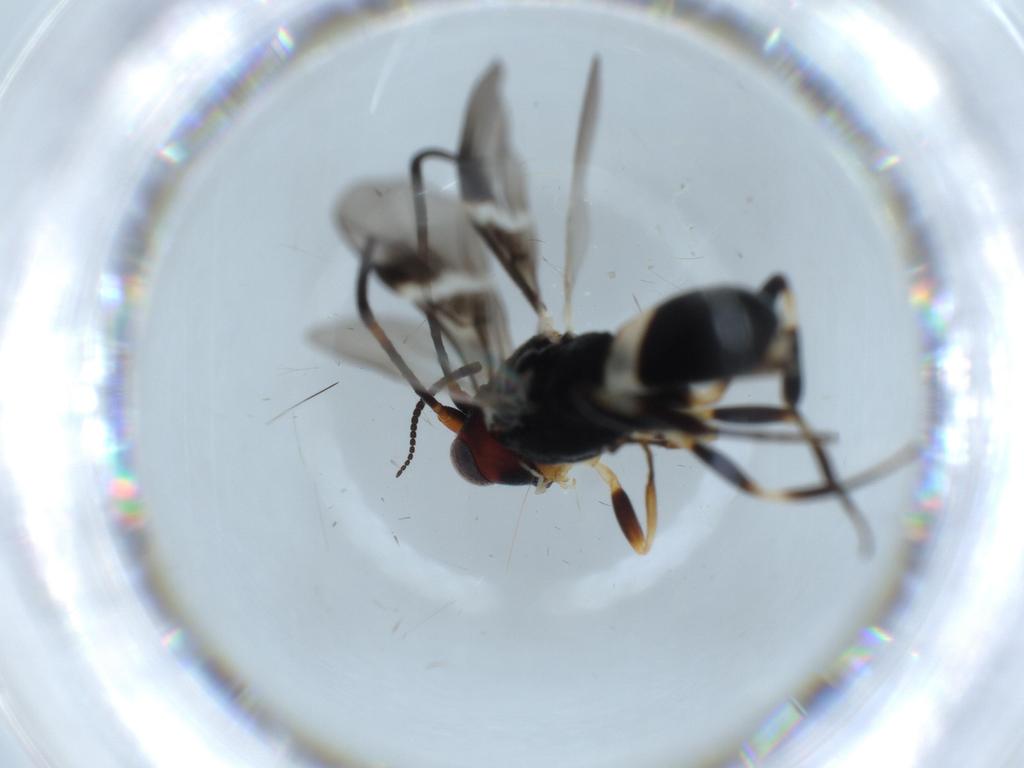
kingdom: Animalia
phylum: Arthropoda
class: Insecta
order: Hymenoptera
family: Braconidae
